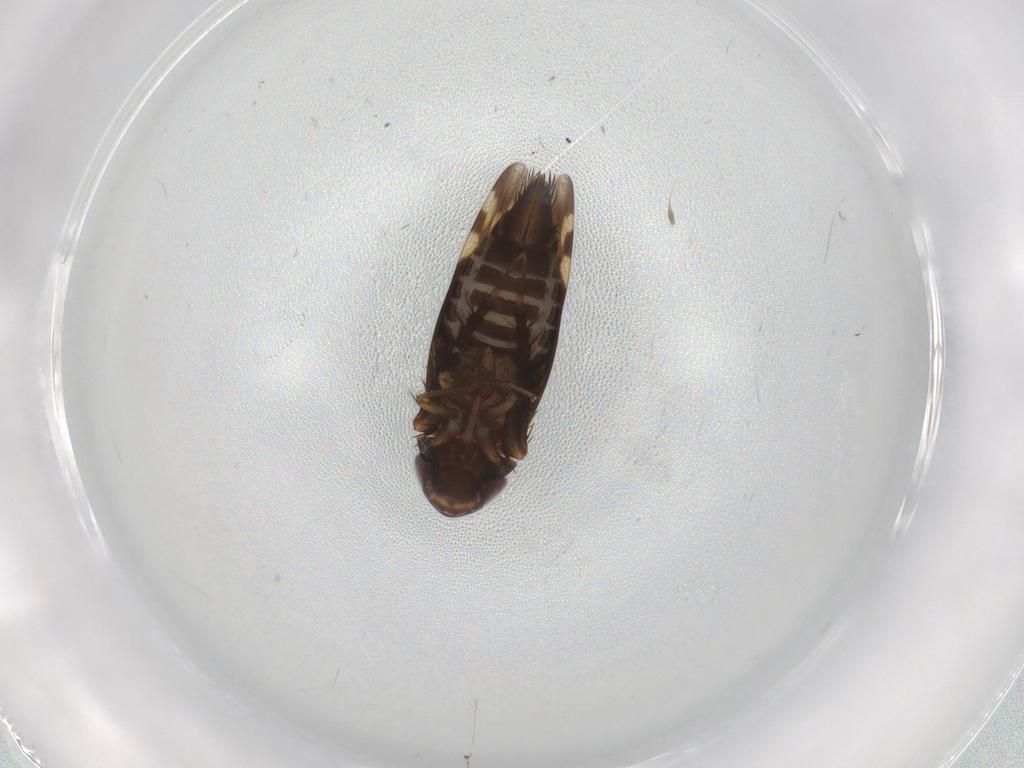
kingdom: Animalia
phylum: Arthropoda
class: Insecta
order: Hemiptera
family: Cicadellidae
